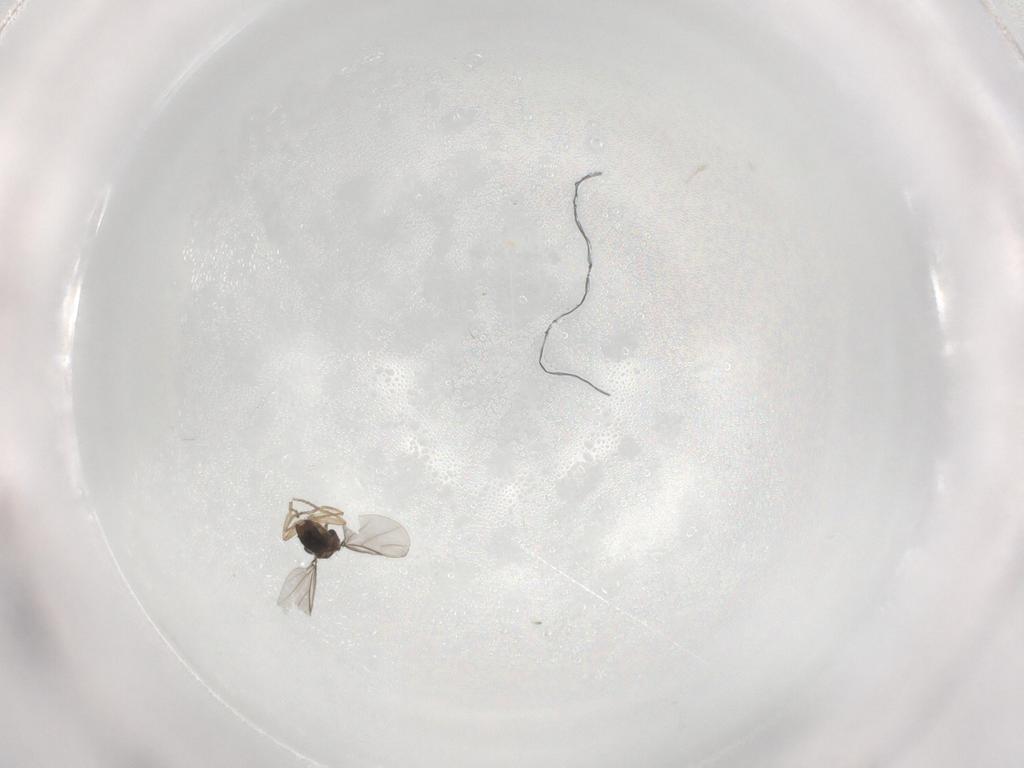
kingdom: Animalia
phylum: Arthropoda
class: Insecta
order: Diptera
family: Phoridae
